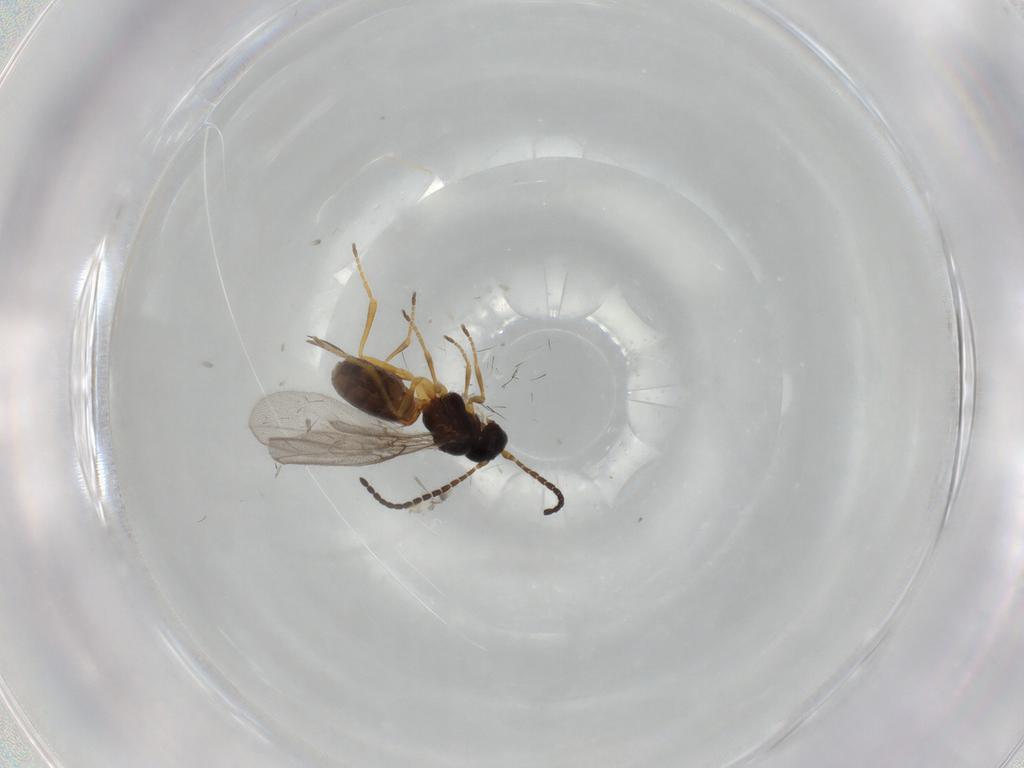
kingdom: Animalia
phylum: Arthropoda
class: Insecta
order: Hymenoptera
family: Braconidae
